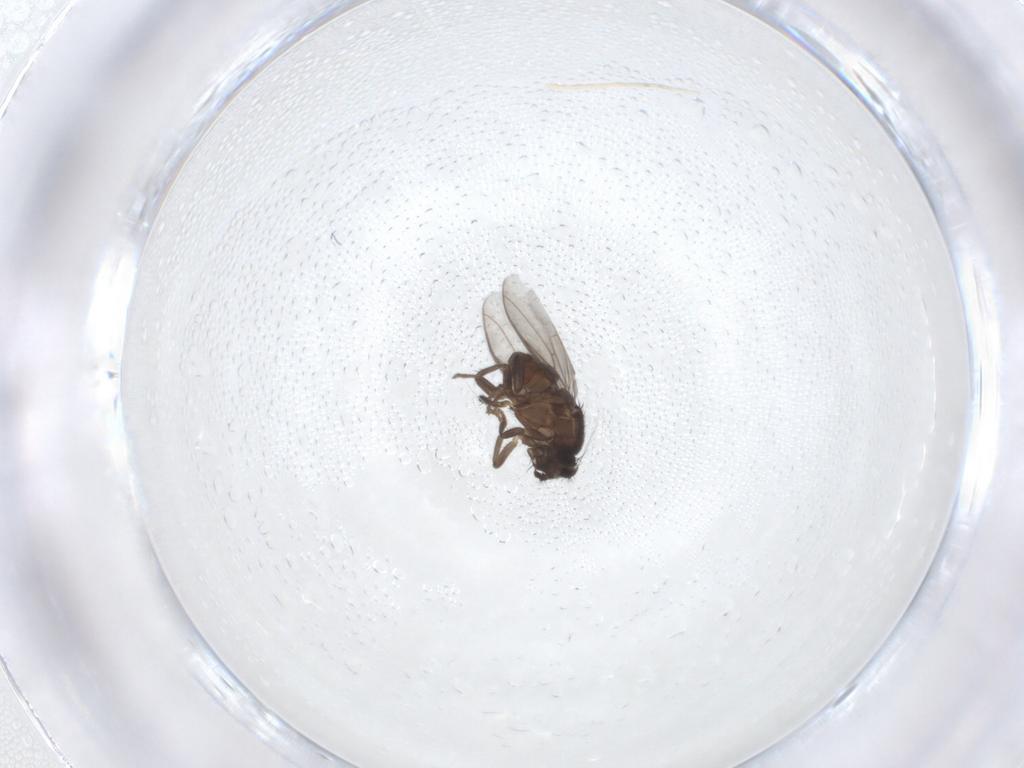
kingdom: Animalia
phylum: Arthropoda
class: Insecta
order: Diptera
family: Sphaeroceridae
